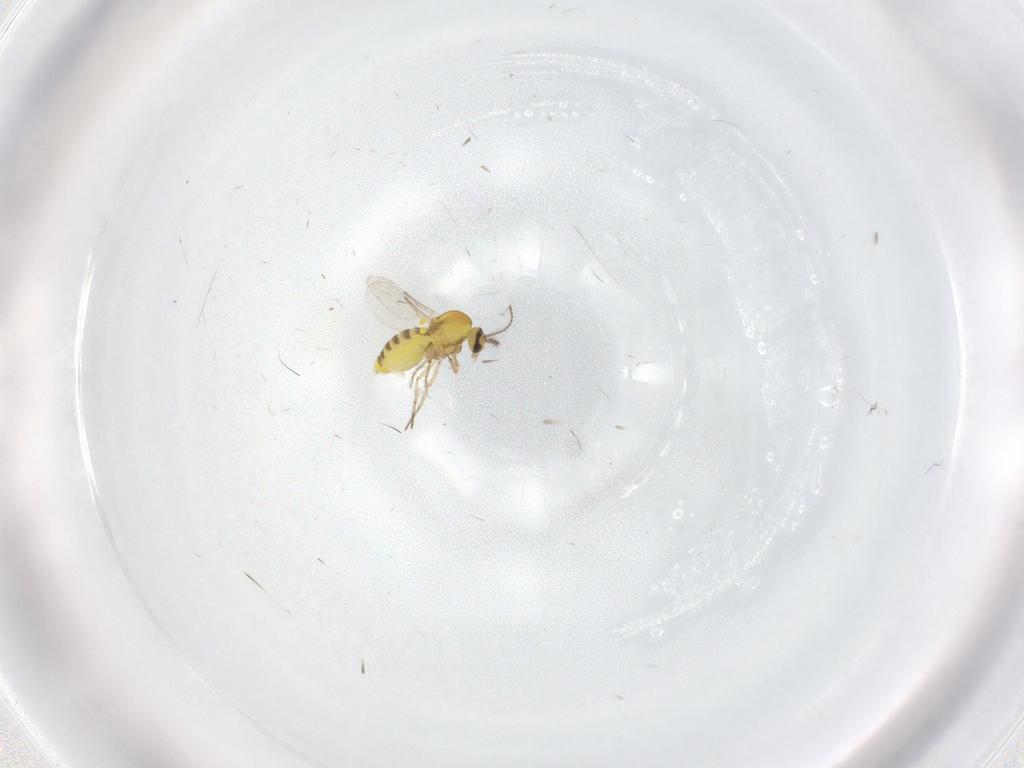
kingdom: Animalia
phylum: Arthropoda
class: Insecta
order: Diptera
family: Ceratopogonidae
